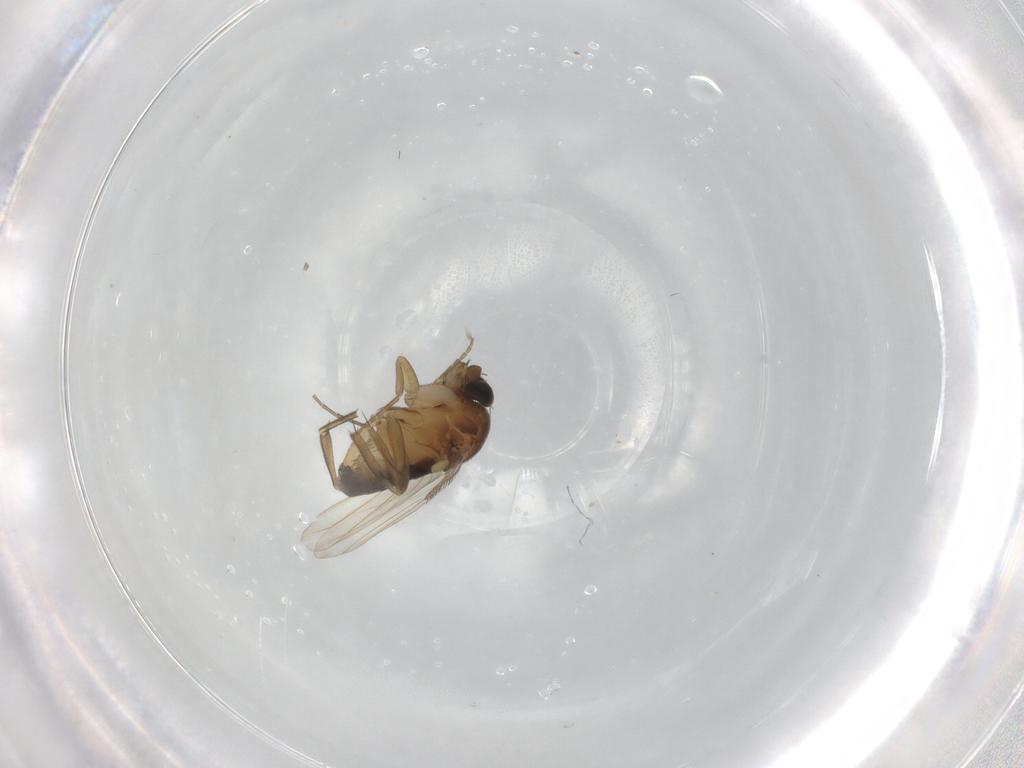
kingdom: Animalia
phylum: Arthropoda
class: Insecta
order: Diptera
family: Phoridae
